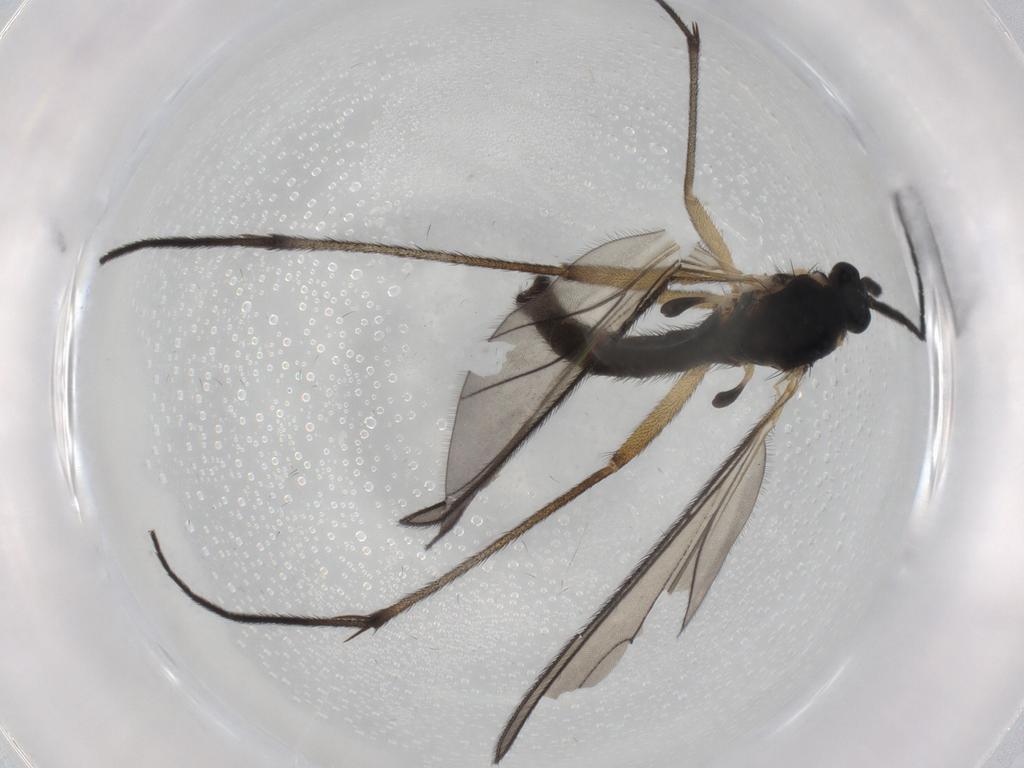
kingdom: Animalia
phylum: Arthropoda
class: Insecta
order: Diptera
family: Sciaridae
